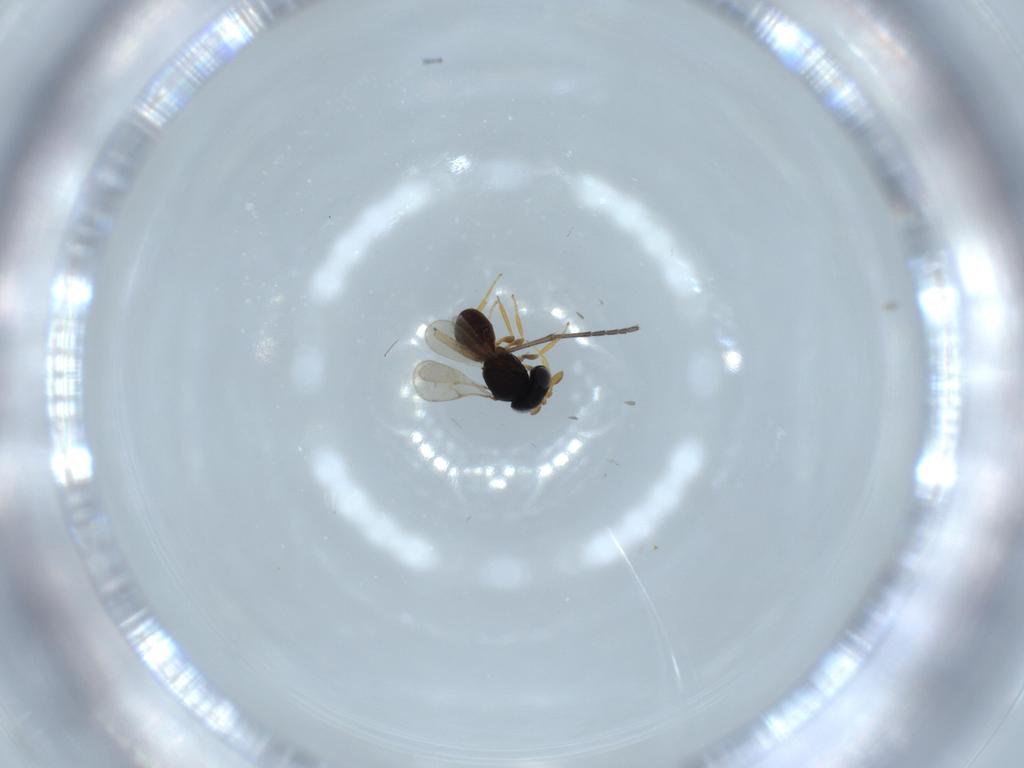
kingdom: Animalia
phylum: Arthropoda
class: Insecta
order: Hymenoptera
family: Scelionidae
